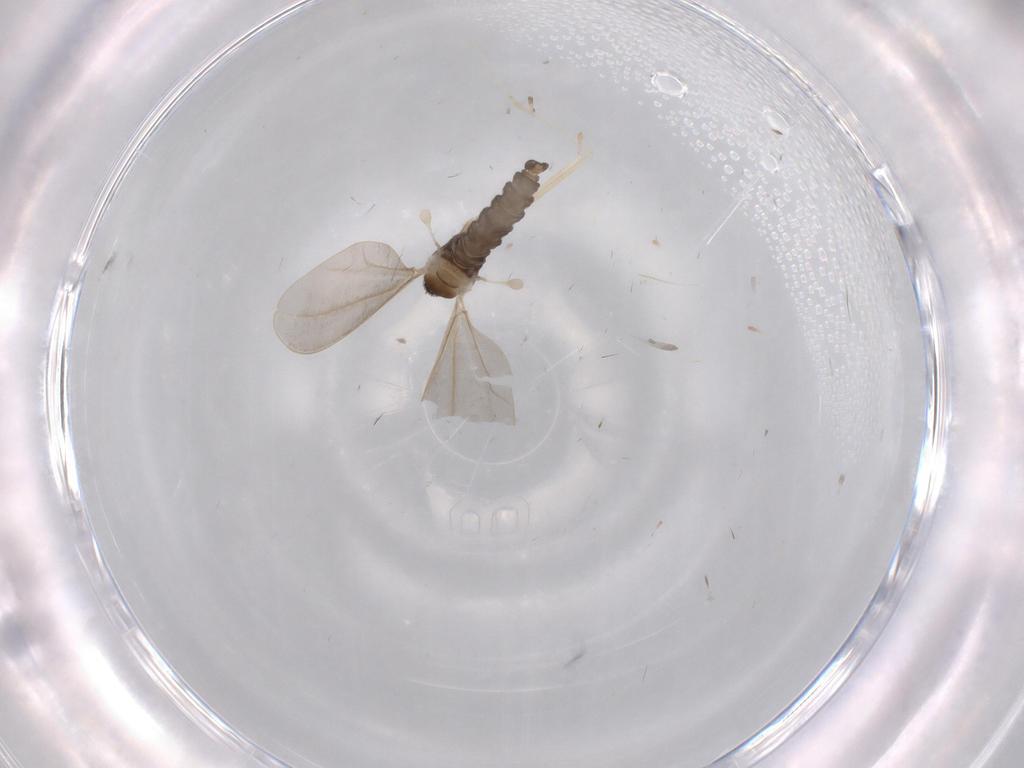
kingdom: Animalia
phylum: Arthropoda
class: Insecta
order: Diptera
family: Cecidomyiidae
